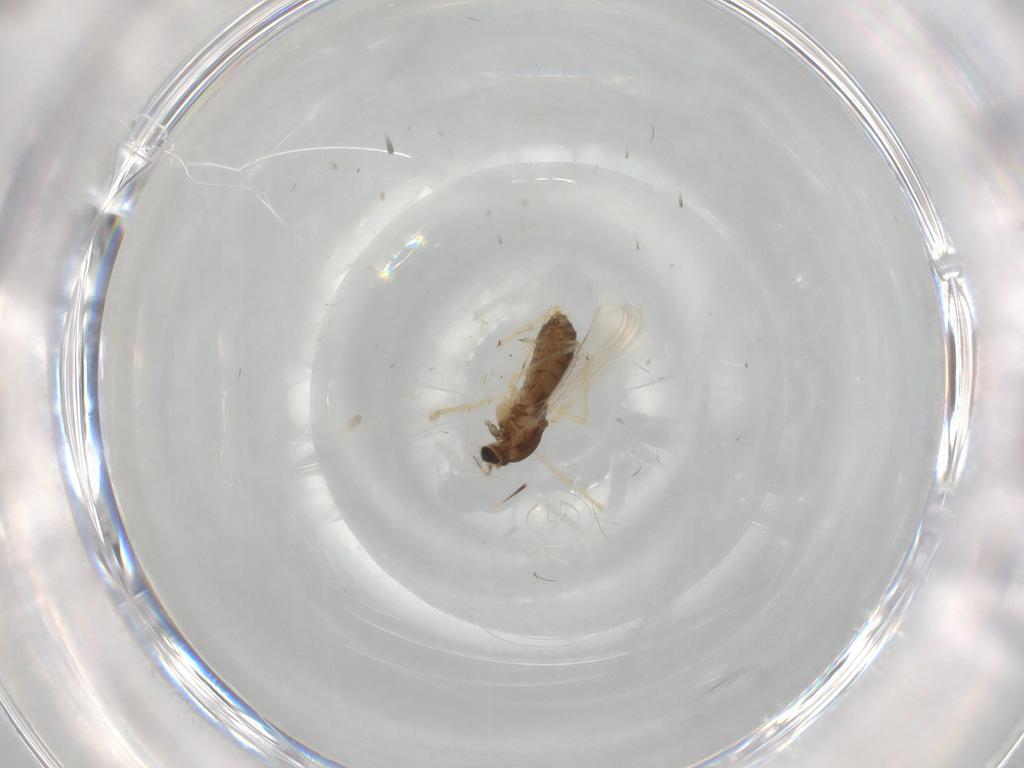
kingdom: Animalia
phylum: Arthropoda
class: Insecta
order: Diptera
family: Chironomidae
